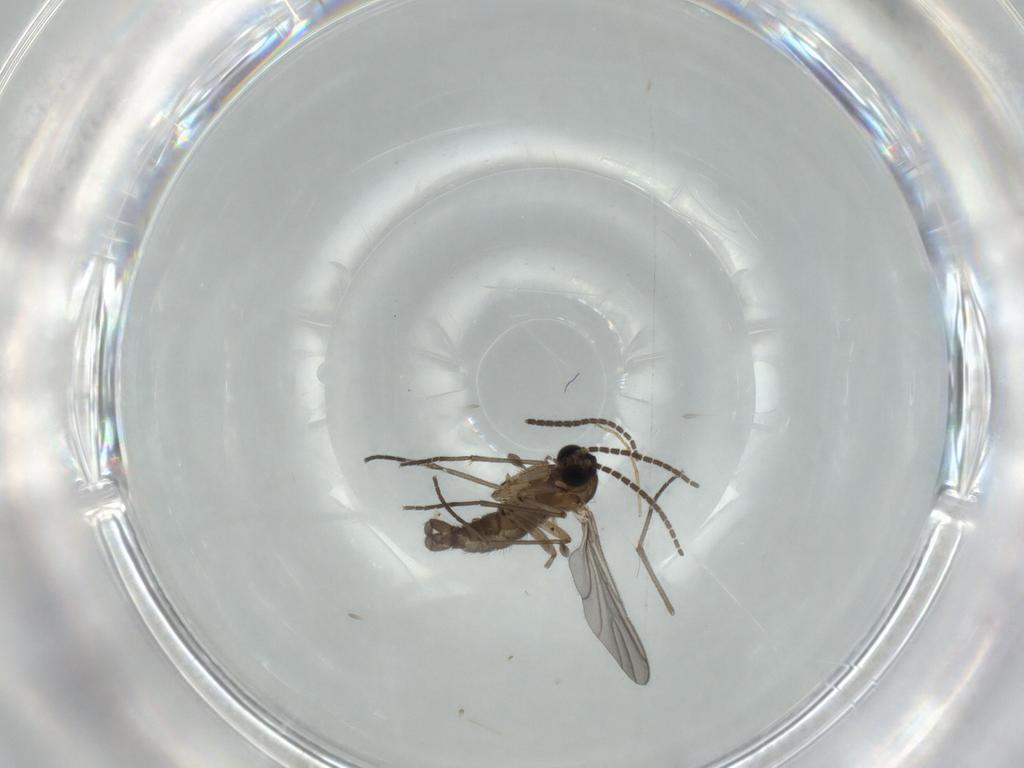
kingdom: Animalia
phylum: Arthropoda
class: Insecta
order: Diptera
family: Sciaridae
